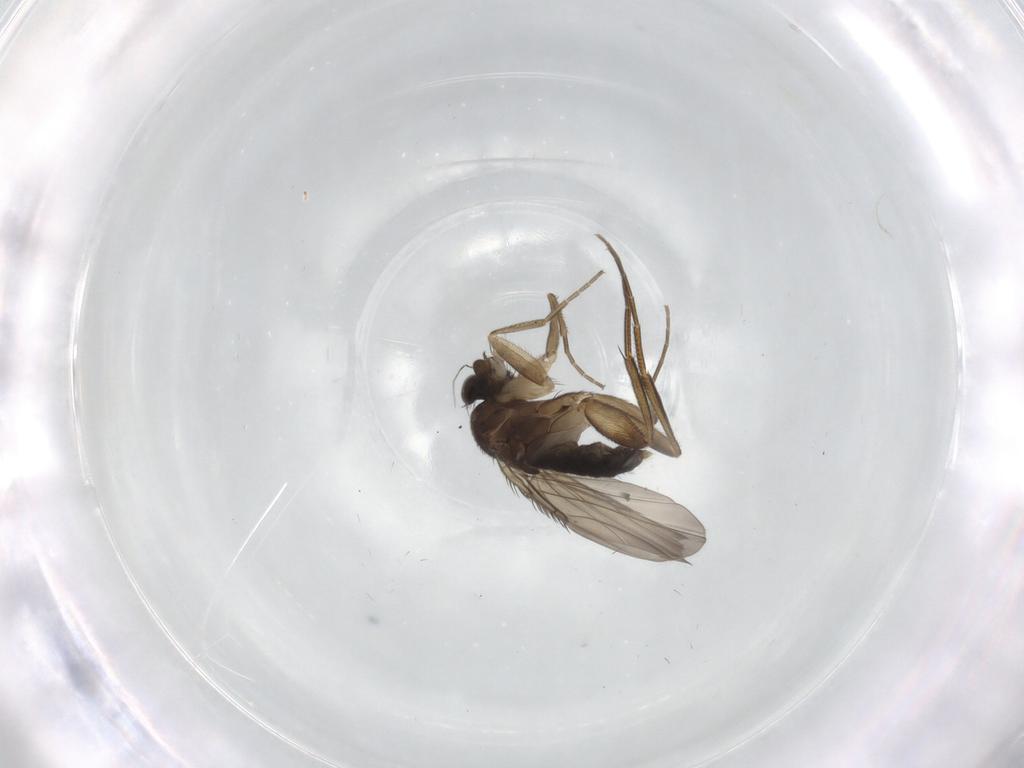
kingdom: Animalia
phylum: Arthropoda
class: Insecta
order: Diptera
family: Phoridae
